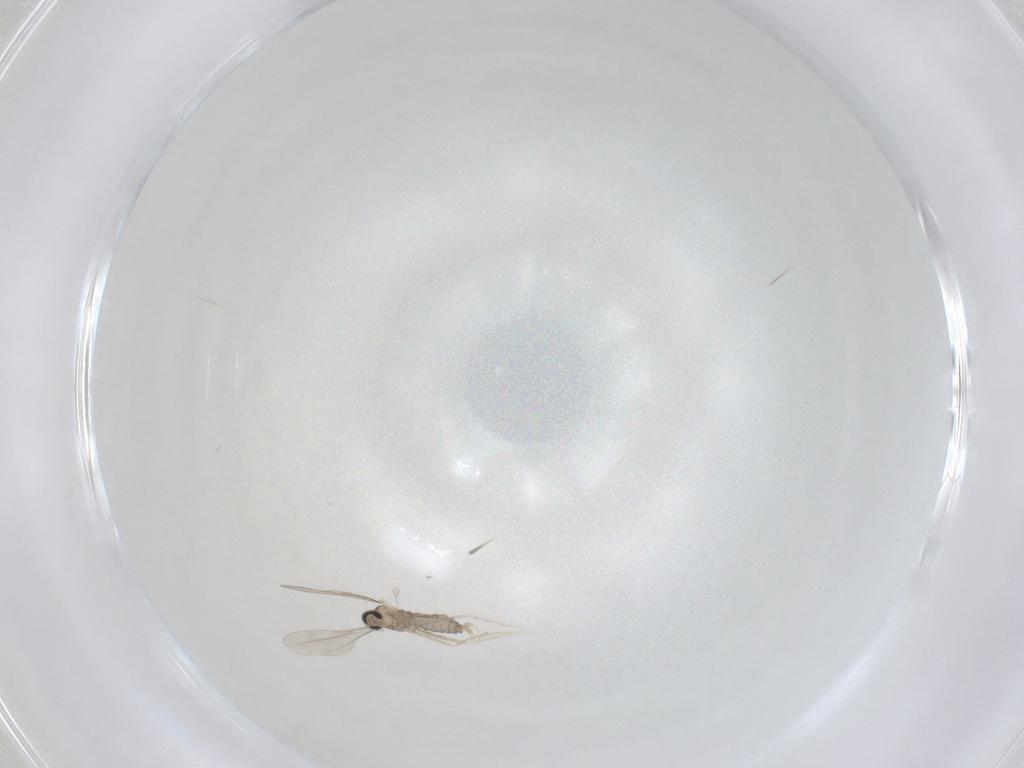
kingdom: Animalia
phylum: Arthropoda
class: Insecta
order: Diptera
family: Cecidomyiidae
